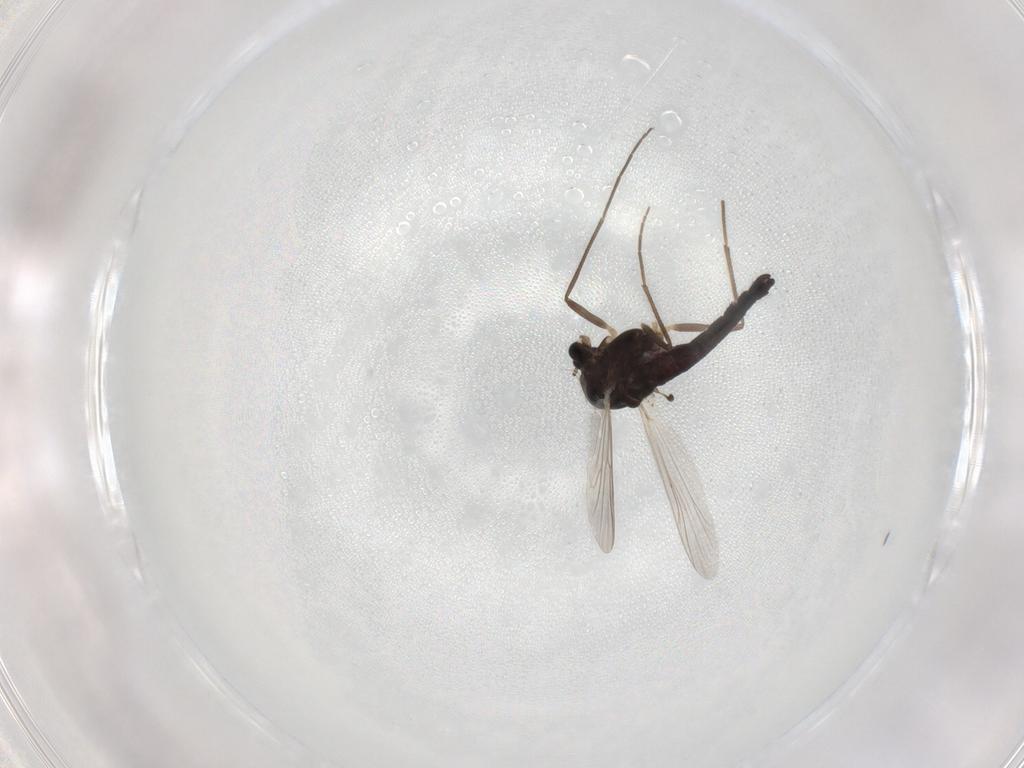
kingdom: Animalia
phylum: Arthropoda
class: Insecta
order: Diptera
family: Chironomidae
